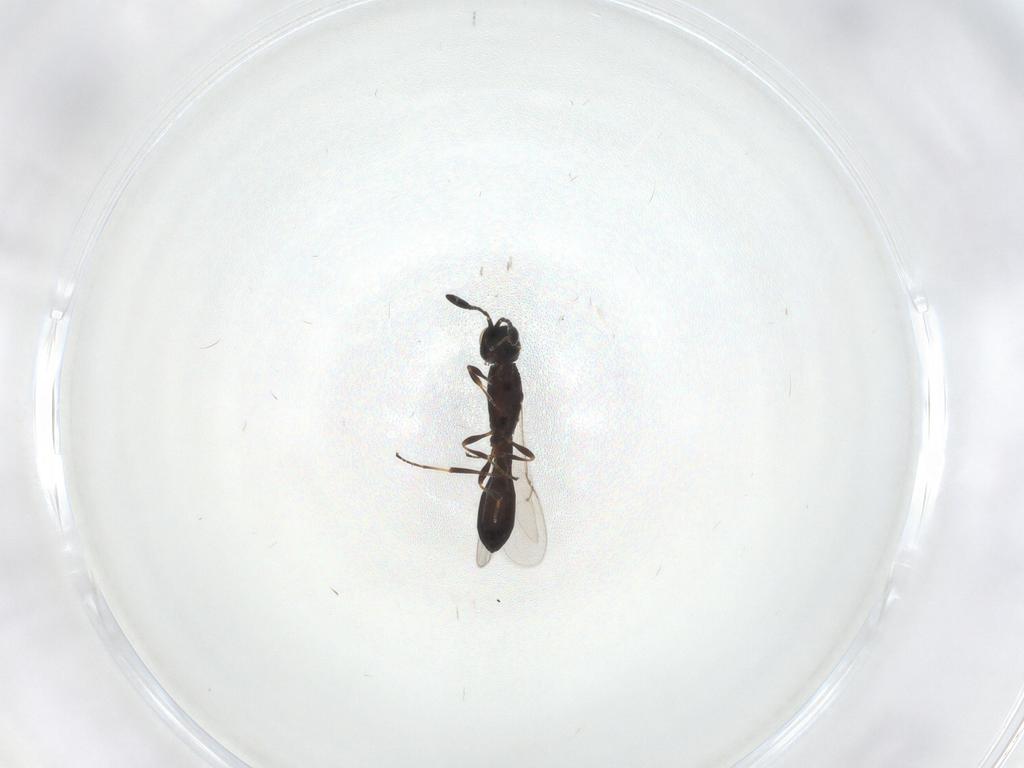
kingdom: Animalia
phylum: Arthropoda
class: Insecta
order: Hymenoptera
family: Scelionidae
